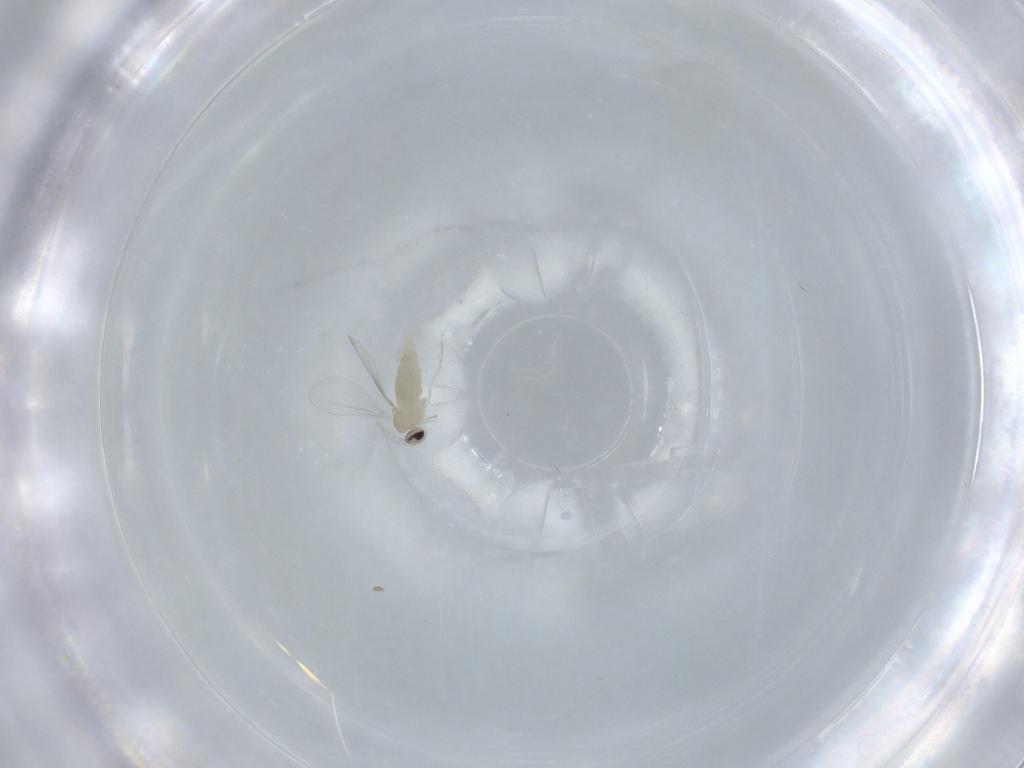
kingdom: Animalia
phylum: Arthropoda
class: Insecta
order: Diptera
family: Cecidomyiidae
